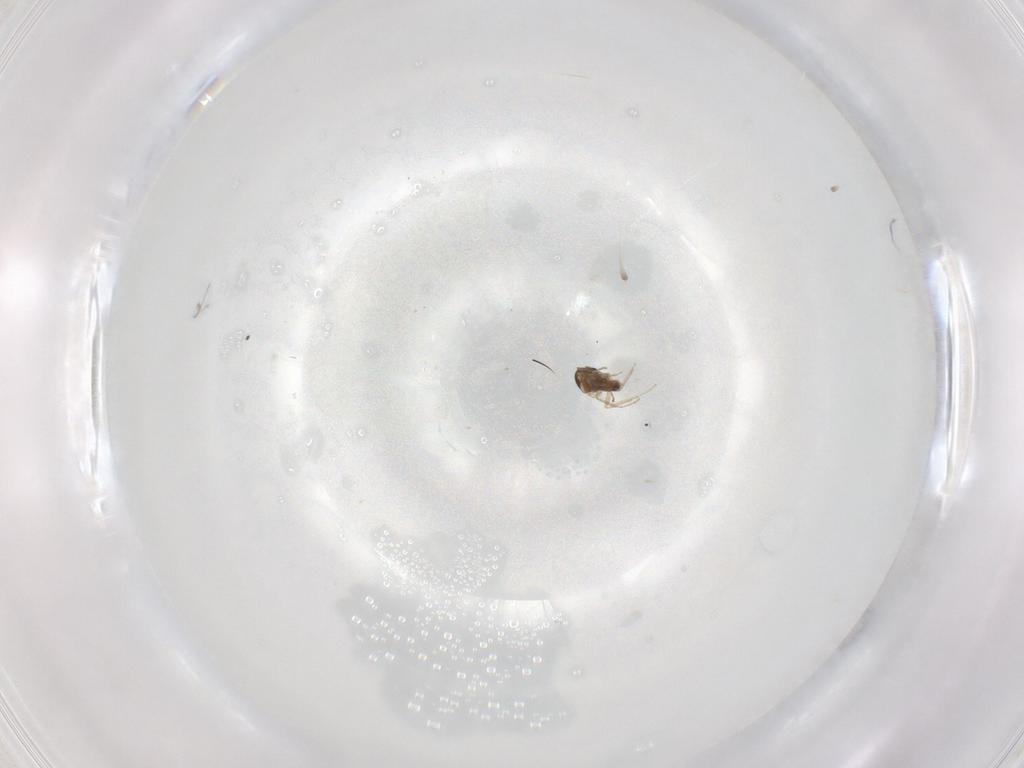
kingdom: Animalia
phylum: Arthropoda
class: Insecta
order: Diptera
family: Cecidomyiidae
